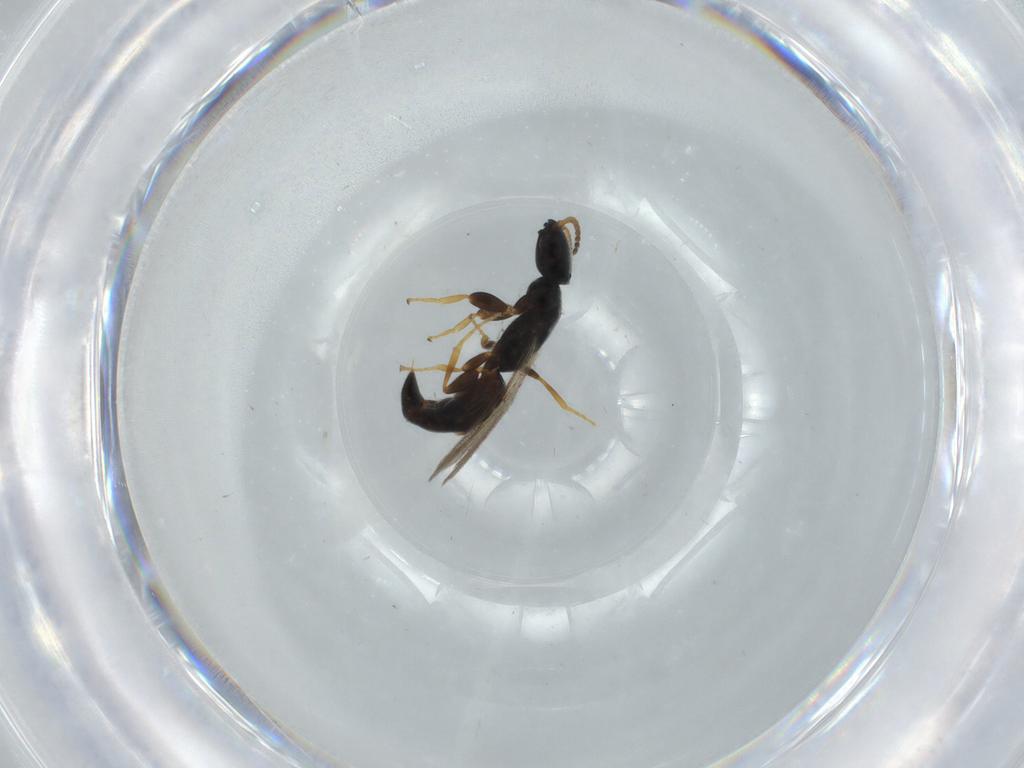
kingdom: Animalia
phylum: Arthropoda
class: Insecta
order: Hymenoptera
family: Bethylidae
